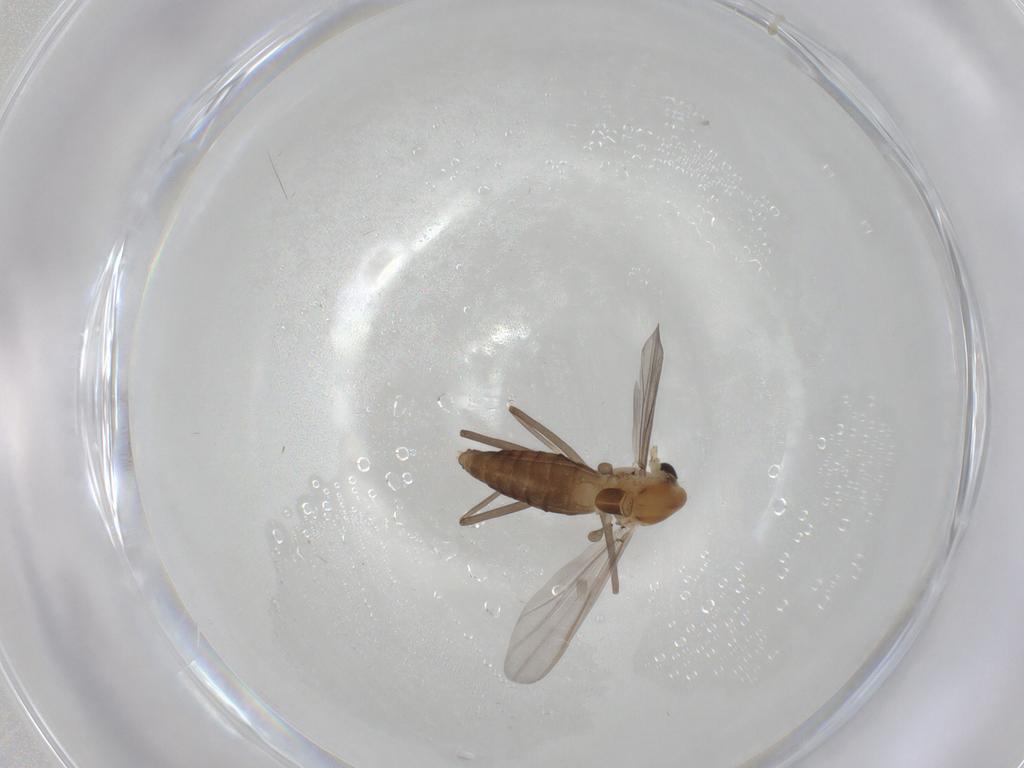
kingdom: Animalia
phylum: Arthropoda
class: Insecta
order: Diptera
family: Chironomidae
